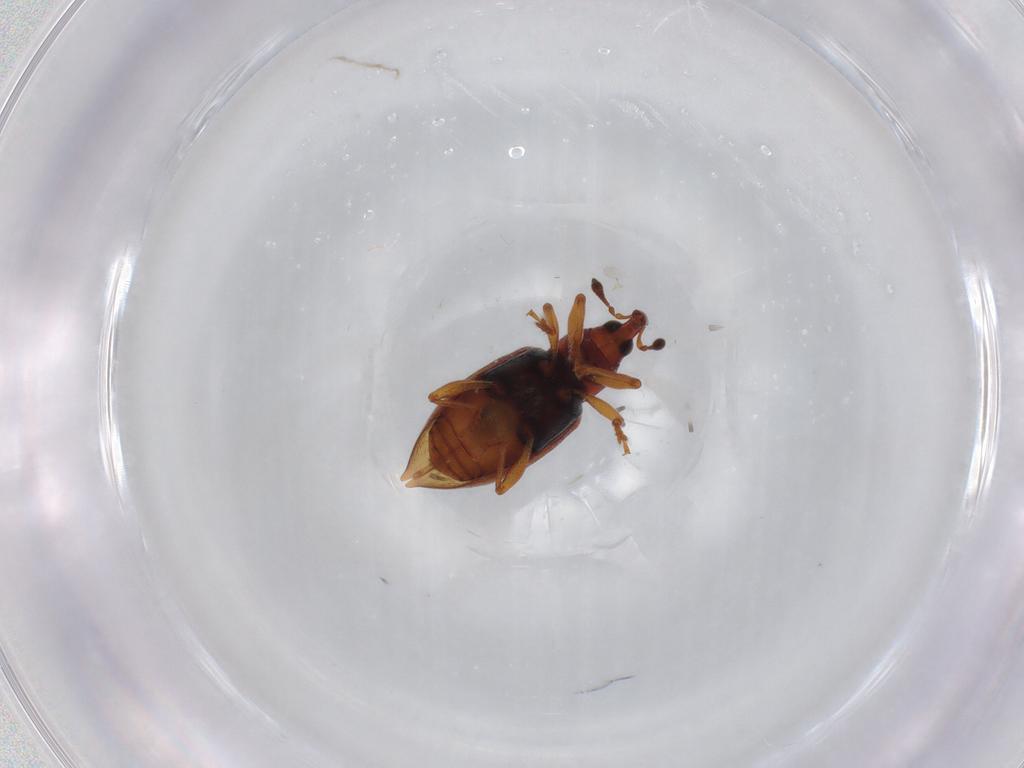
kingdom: Animalia
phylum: Arthropoda
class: Insecta
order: Coleoptera
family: Curculionidae
